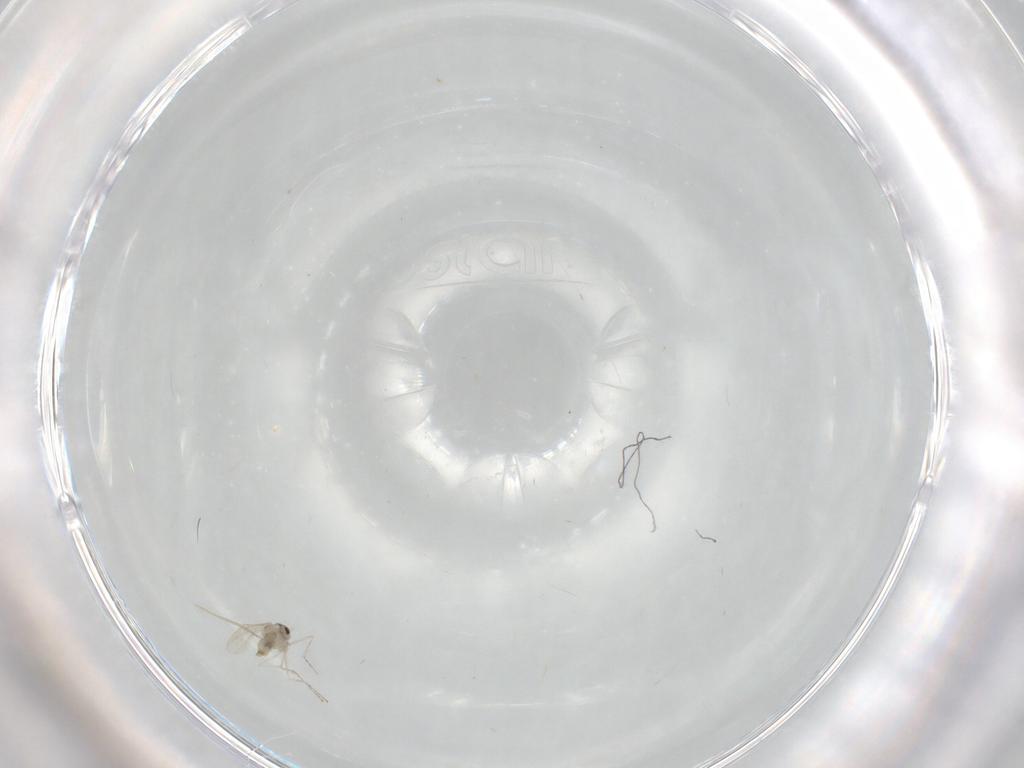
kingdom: Animalia
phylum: Arthropoda
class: Insecta
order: Diptera
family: Cecidomyiidae
